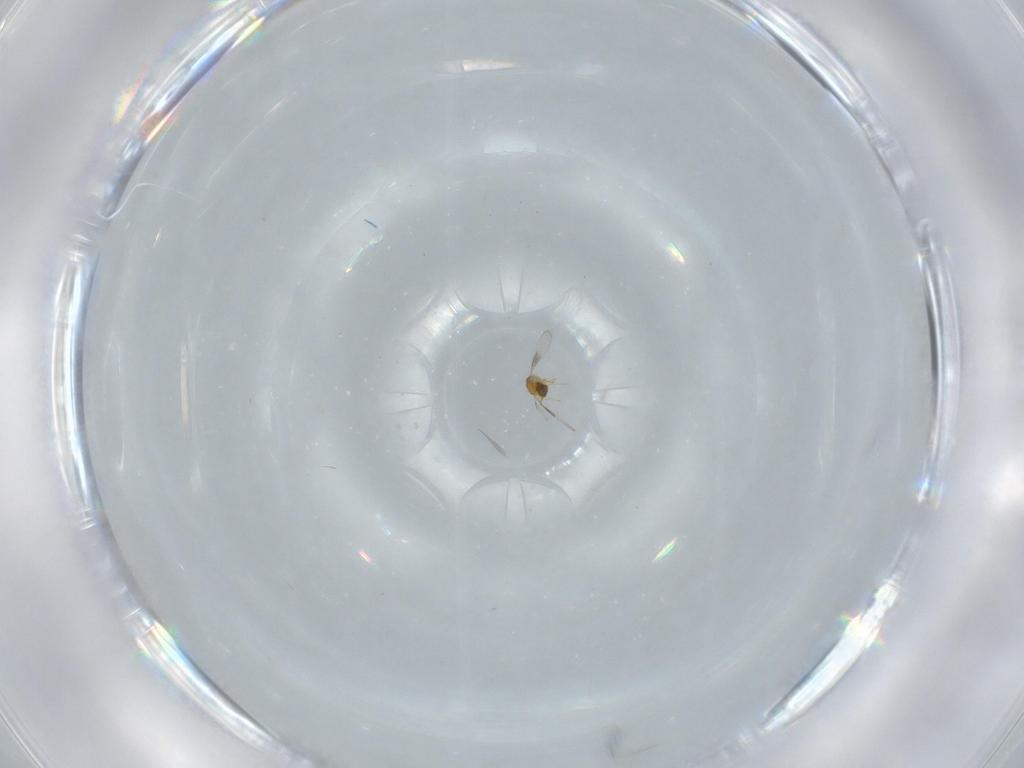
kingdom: Animalia
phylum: Arthropoda
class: Insecta
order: Hymenoptera
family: Trichogrammatidae
